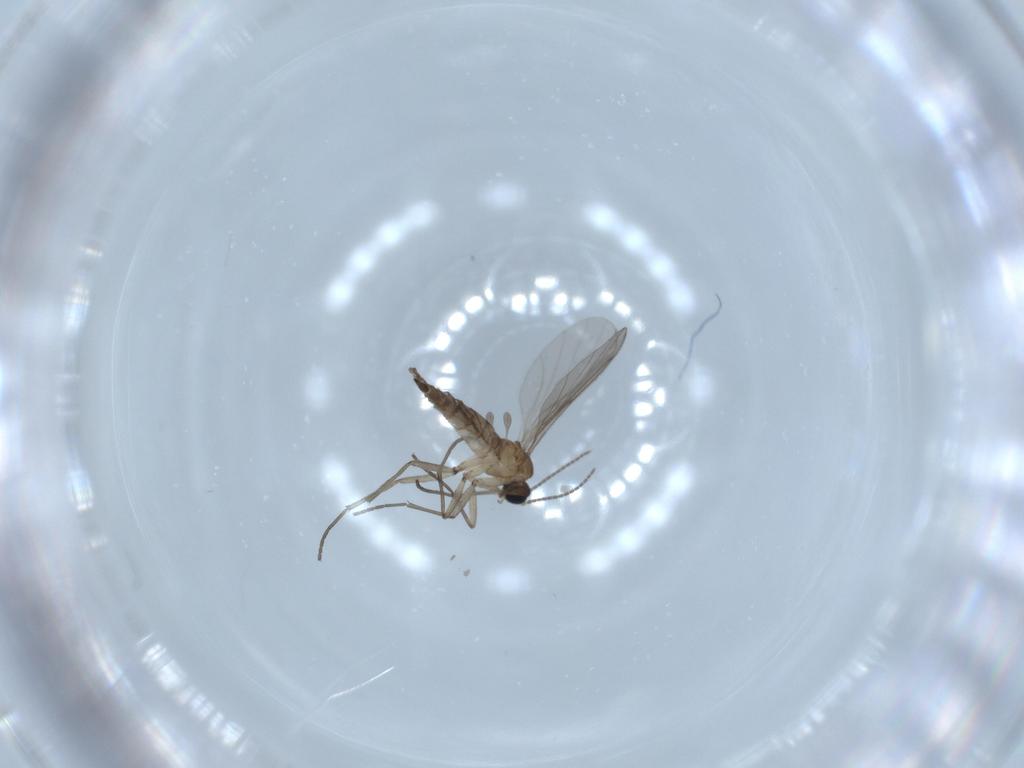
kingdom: Animalia
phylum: Arthropoda
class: Insecta
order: Diptera
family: Sciaridae
